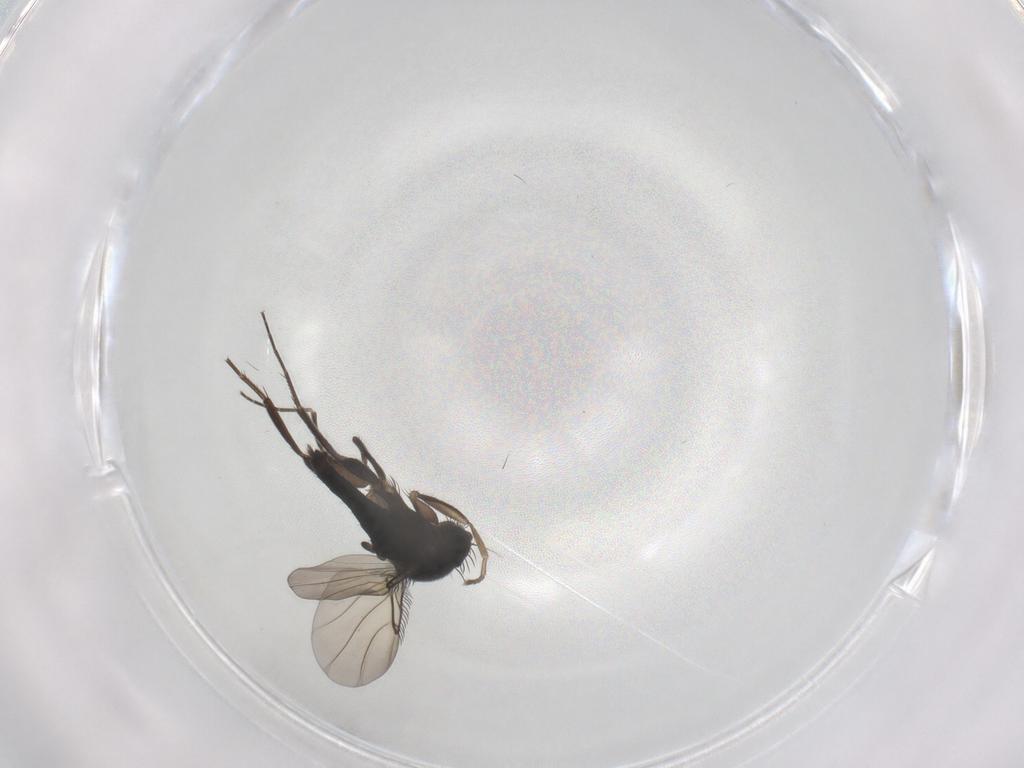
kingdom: Animalia
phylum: Arthropoda
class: Insecta
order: Diptera
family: Phoridae
